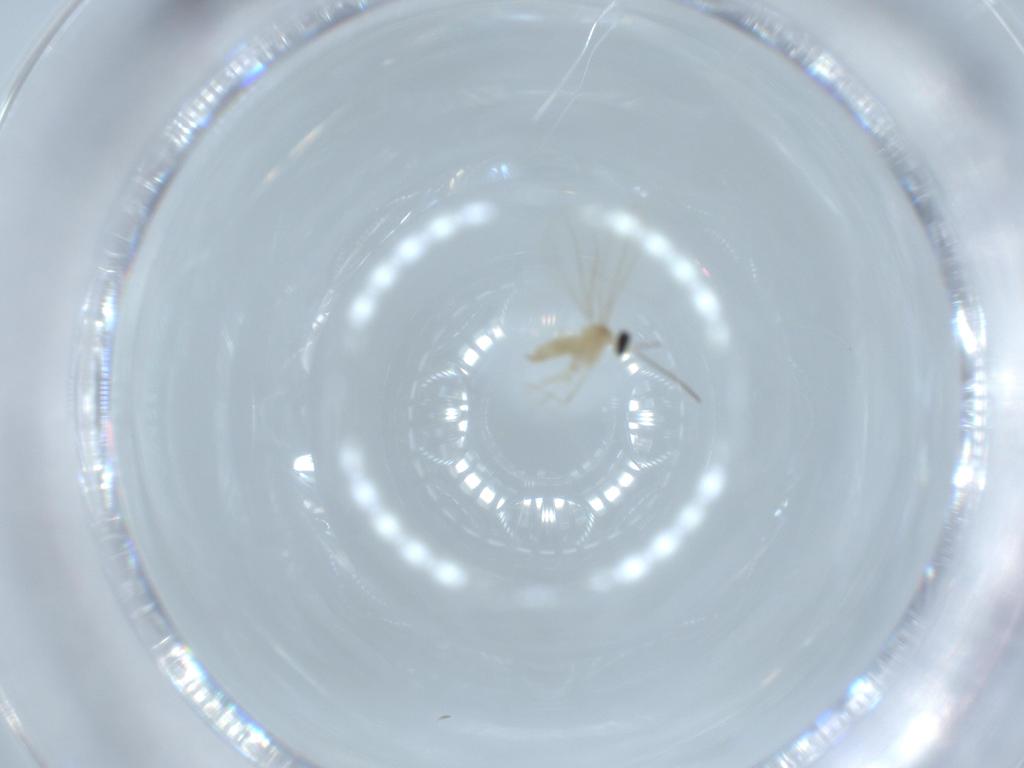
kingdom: Animalia
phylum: Arthropoda
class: Insecta
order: Diptera
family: Cecidomyiidae
